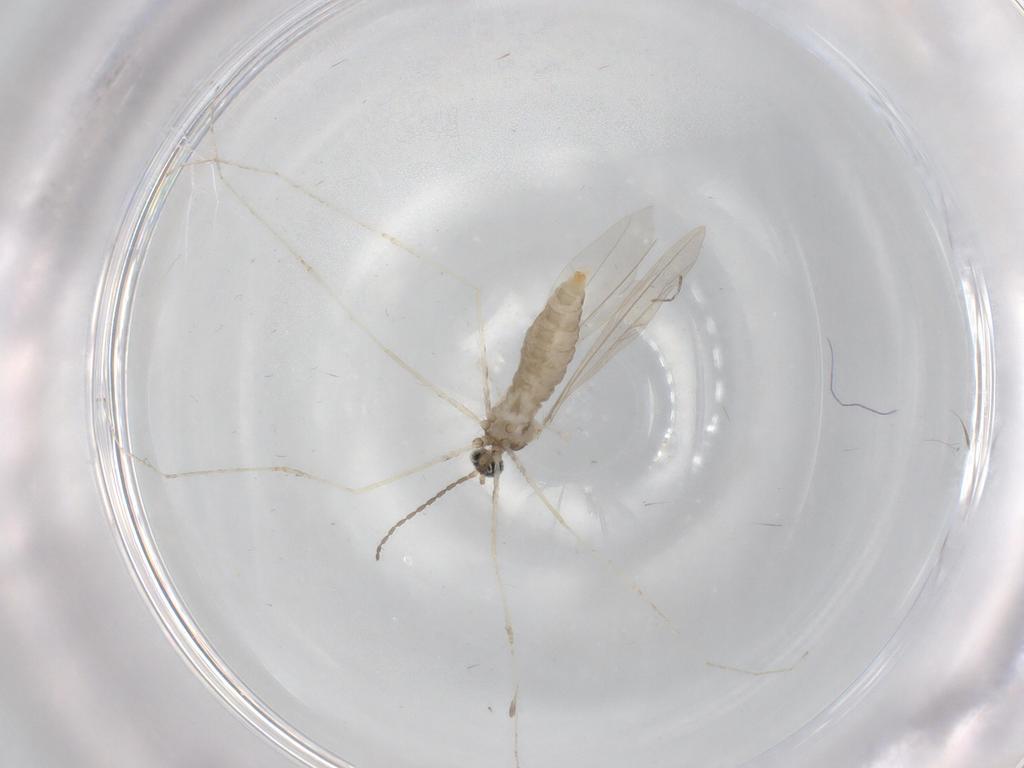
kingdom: Animalia
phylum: Arthropoda
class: Insecta
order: Diptera
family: Cecidomyiidae
